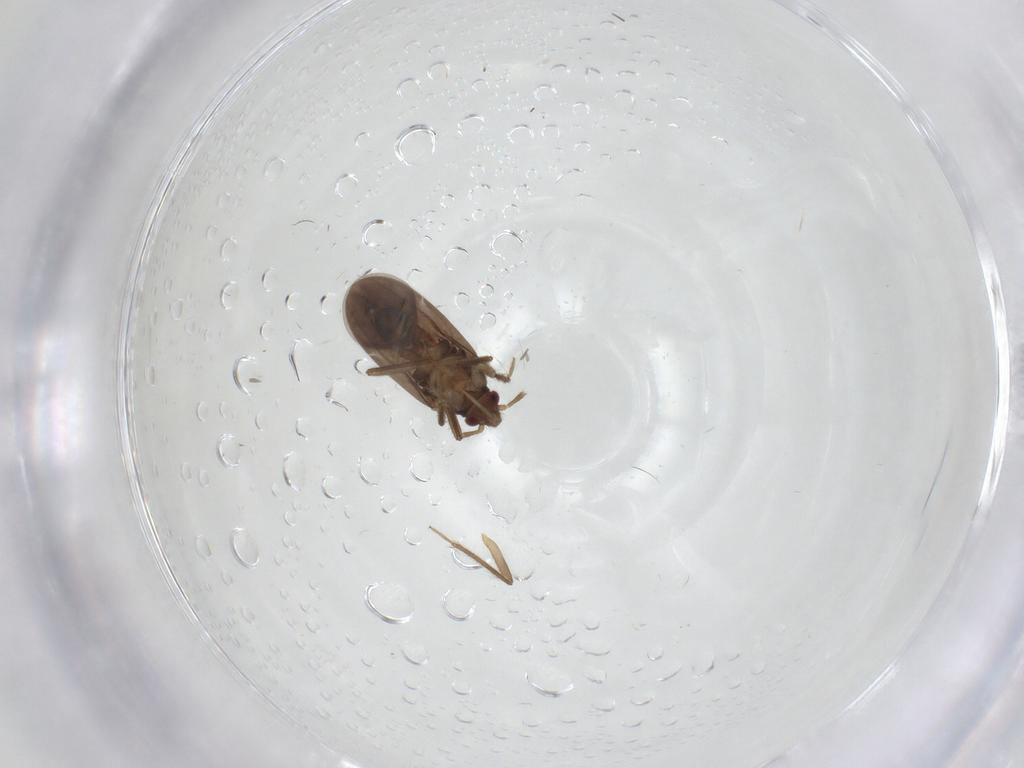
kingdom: Animalia
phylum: Arthropoda
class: Insecta
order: Hemiptera
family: Ceratocombidae
